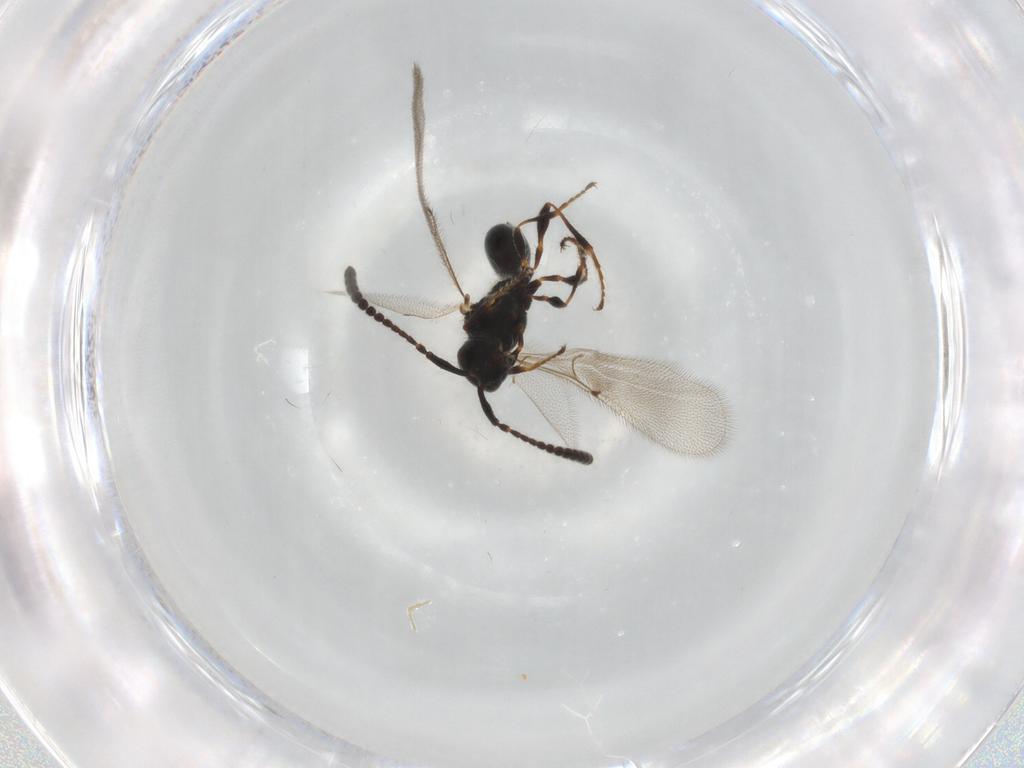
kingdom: Animalia
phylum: Arthropoda
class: Insecta
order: Hymenoptera
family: Diapriidae
